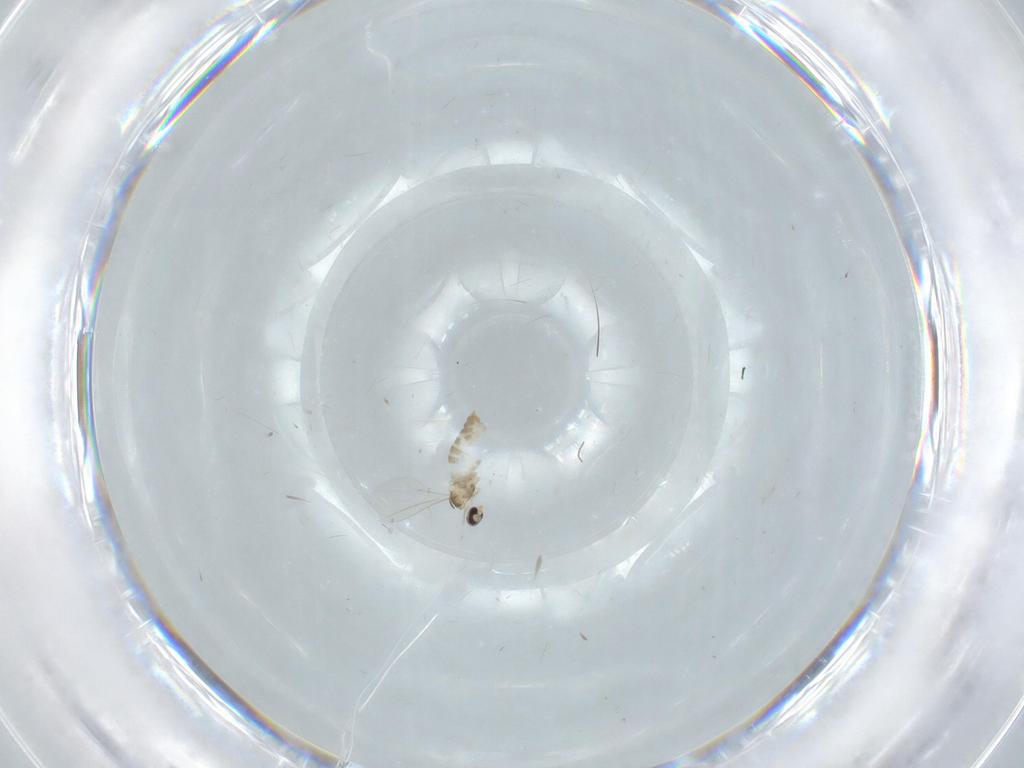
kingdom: Animalia
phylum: Arthropoda
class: Insecta
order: Diptera
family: Cecidomyiidae
